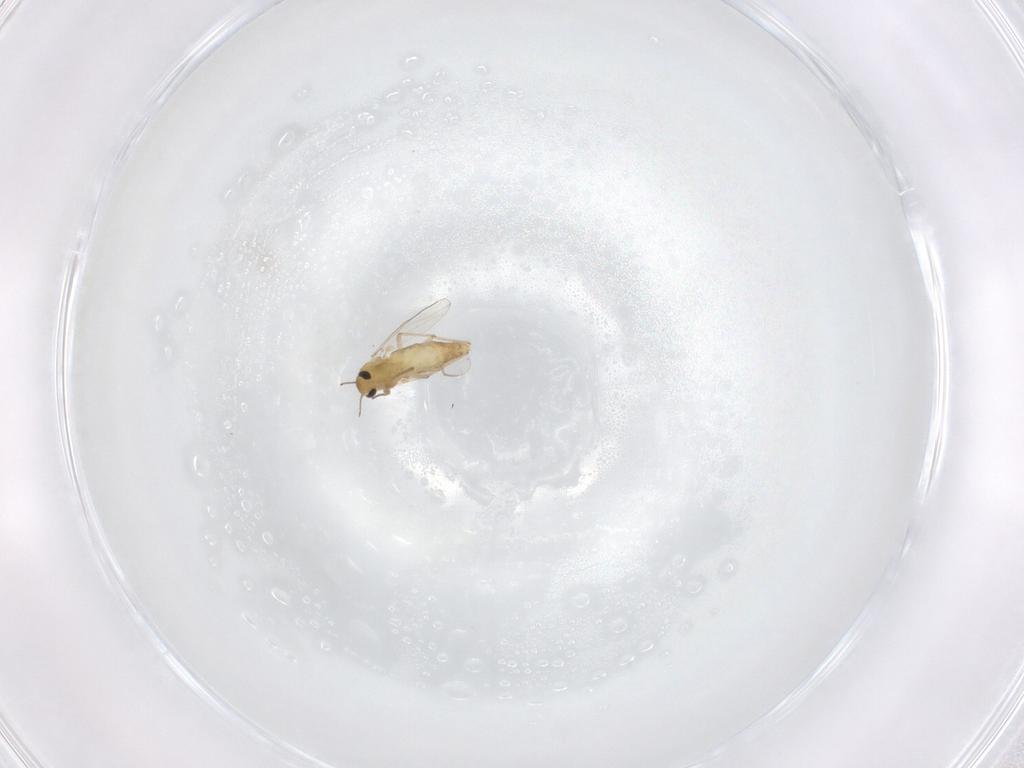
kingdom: Animalia
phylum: Arthropoda
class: Insecta
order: Diptera
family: Chironomidae
